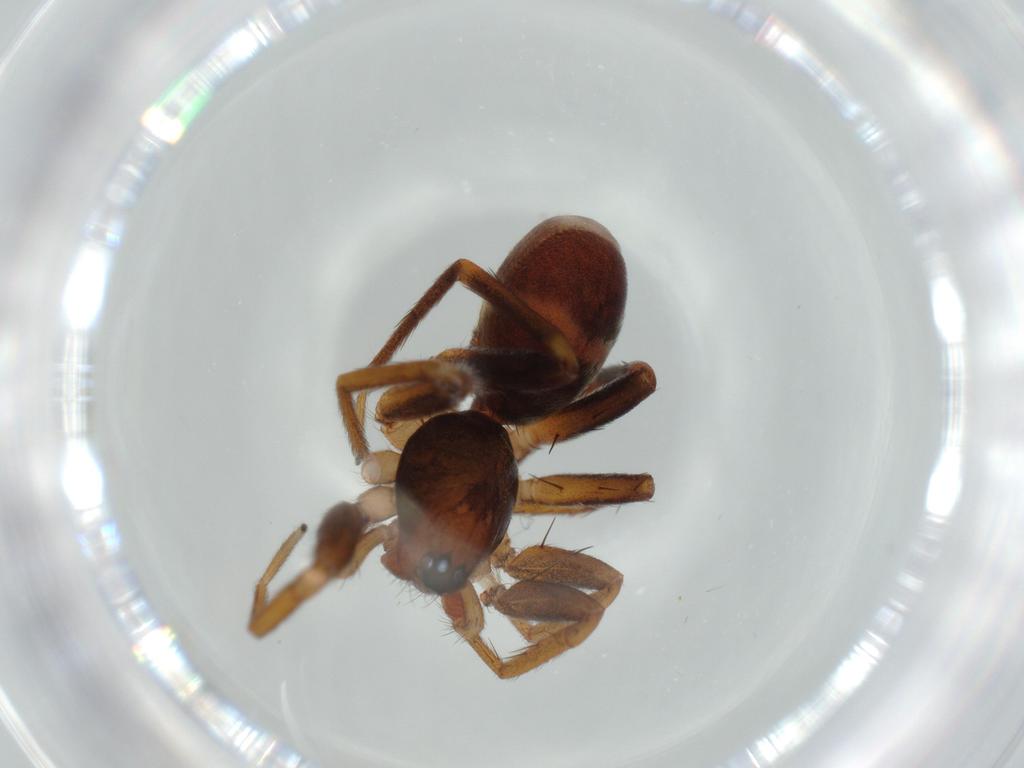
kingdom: Animalia
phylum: Arthropoda
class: Arachnida
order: Araneae
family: Corinnidae
